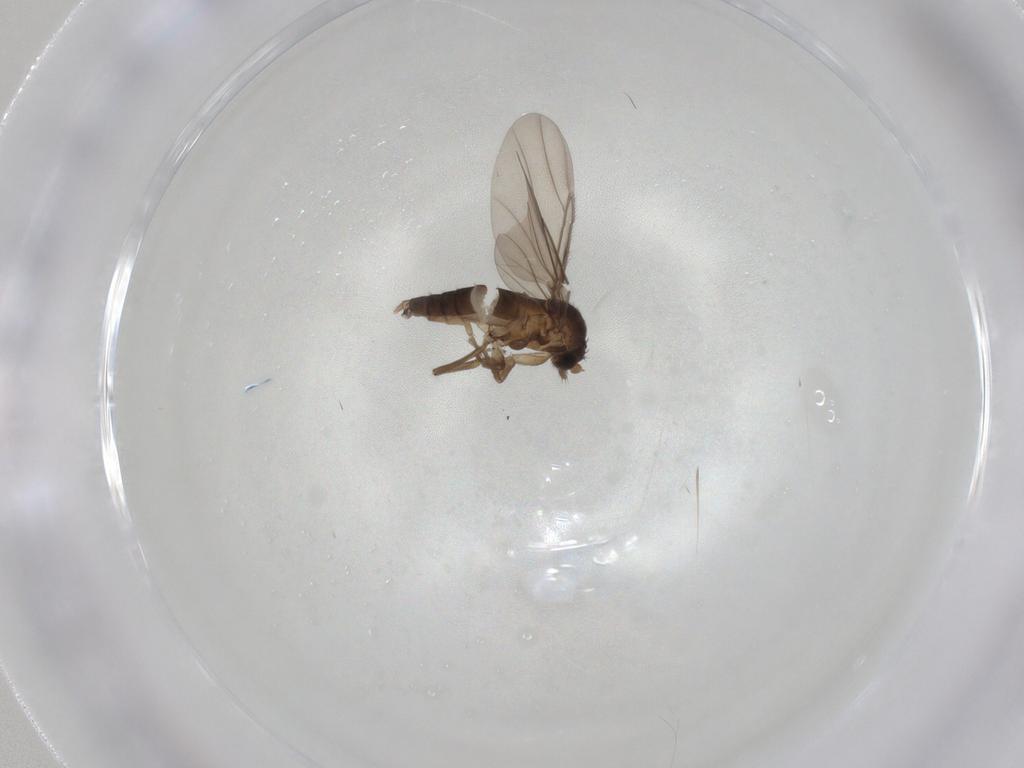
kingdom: Animalia
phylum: Arthropoda
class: Insecta
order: Diptera
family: Phoridae
